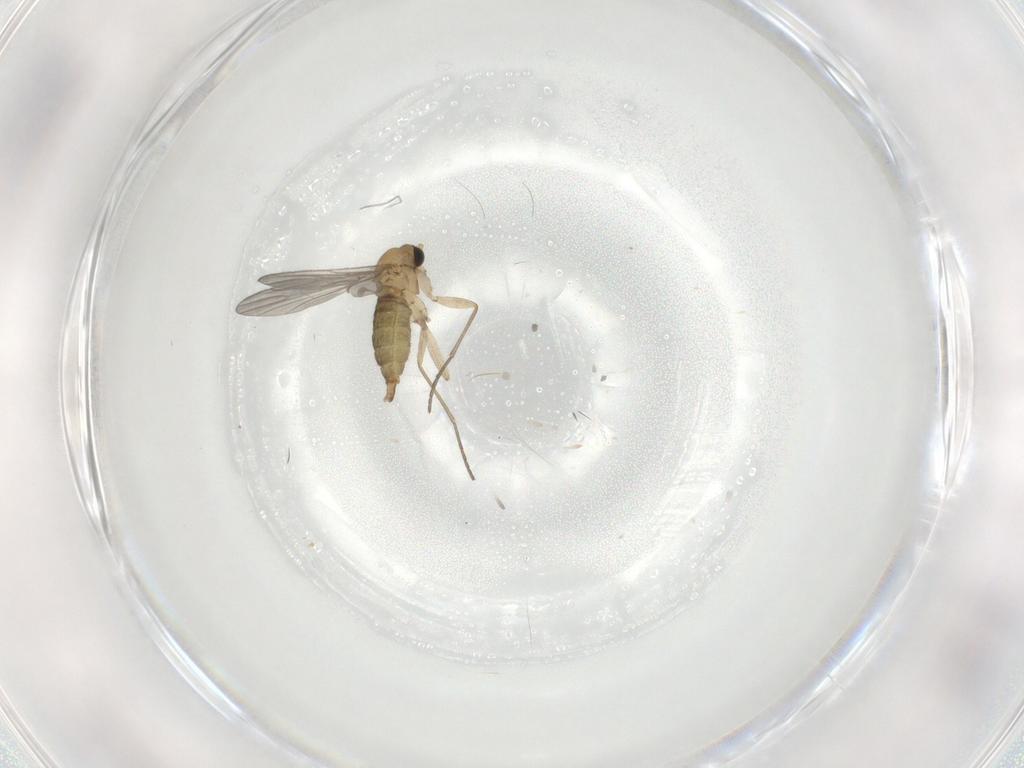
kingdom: Animalia
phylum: Arthropoda
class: Insecta
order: Diptera
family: Sciaridae
